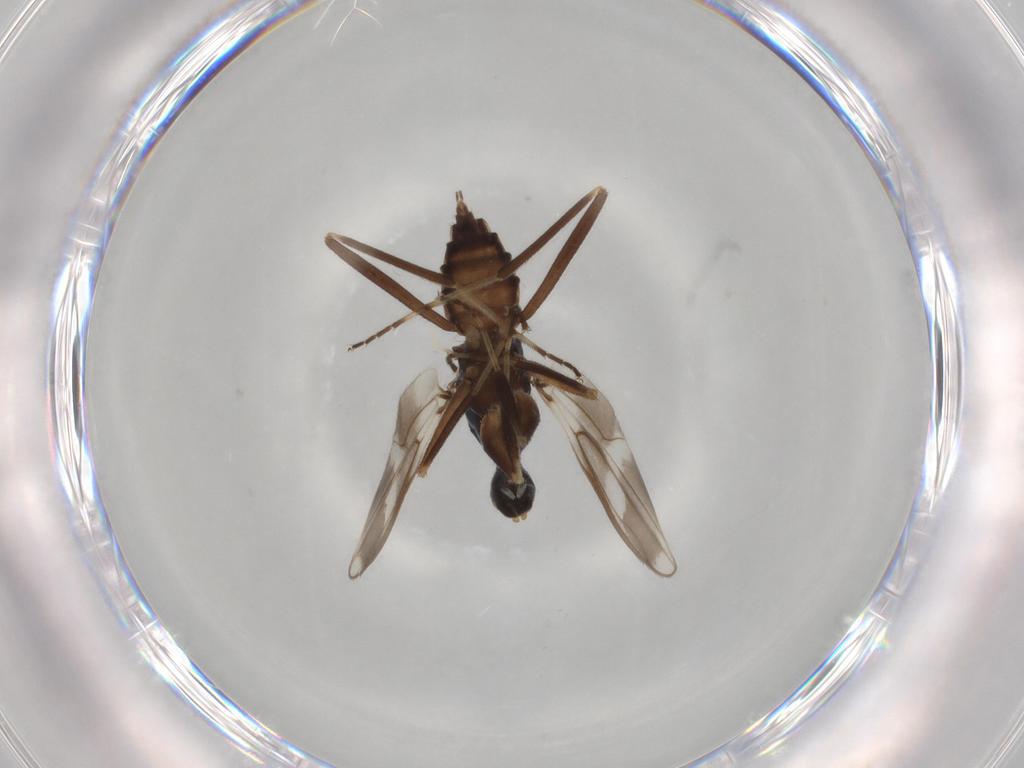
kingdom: Animalia
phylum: Arthropoda
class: Insecta
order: Diptera
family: Hybotidae
